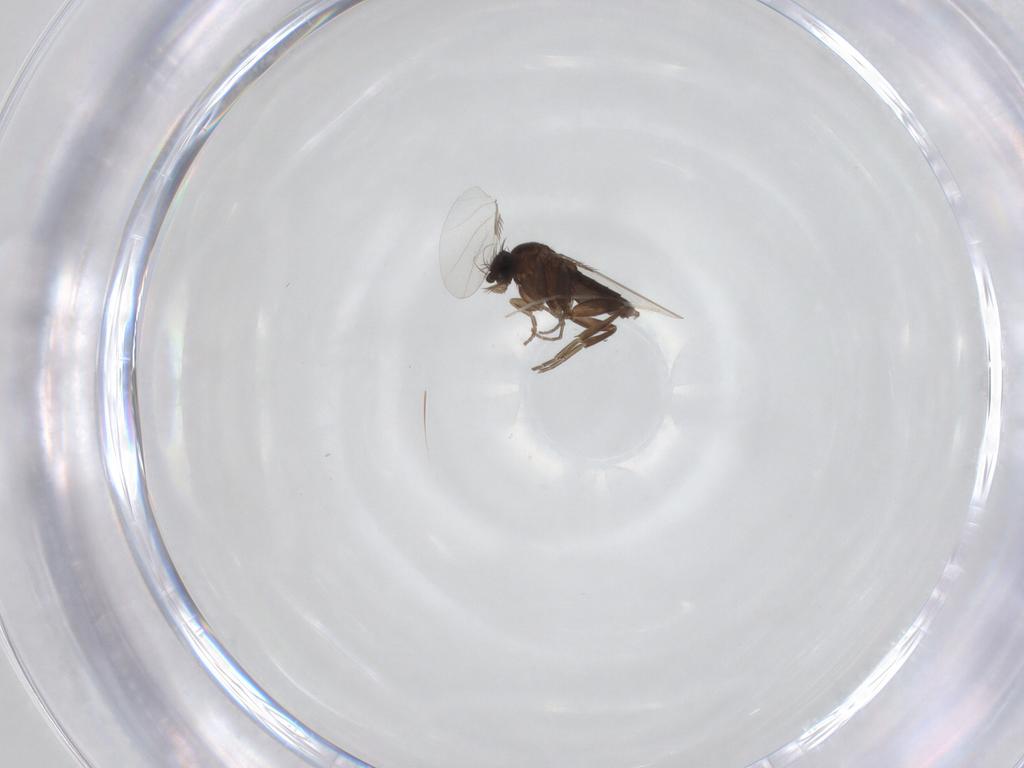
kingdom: Animalia
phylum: Arthropoda
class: Insecta
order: Diptera
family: Phoridae
